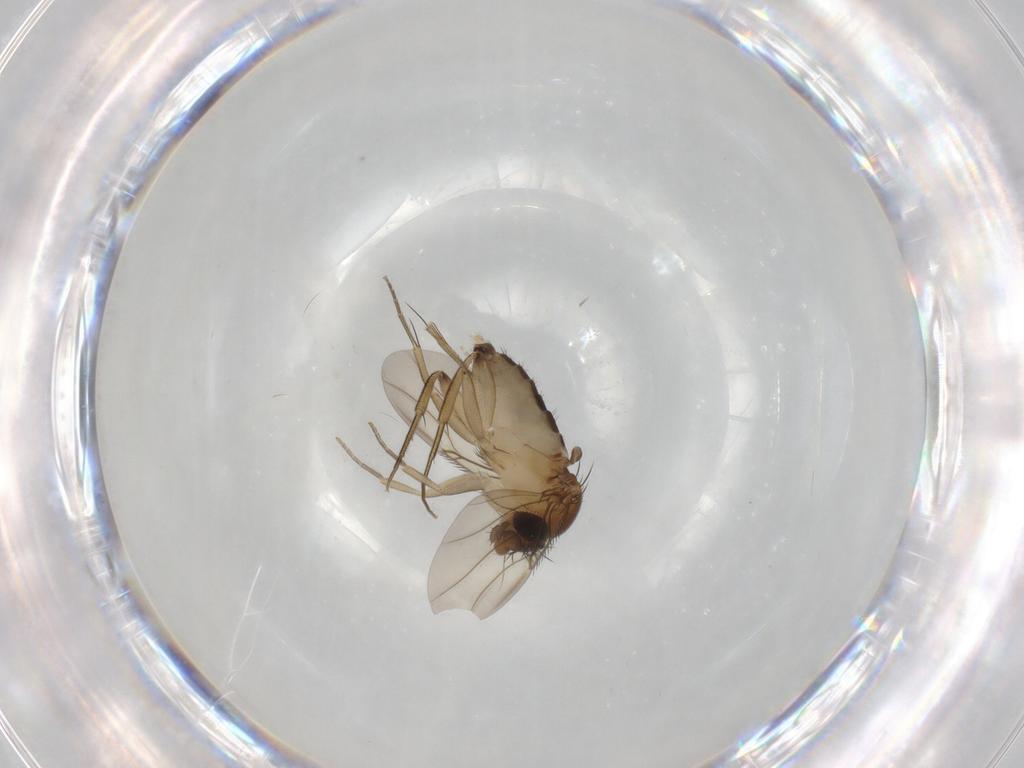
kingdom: Animalia
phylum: Arthropoda
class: Insecta
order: Diptera
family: Phoridae
